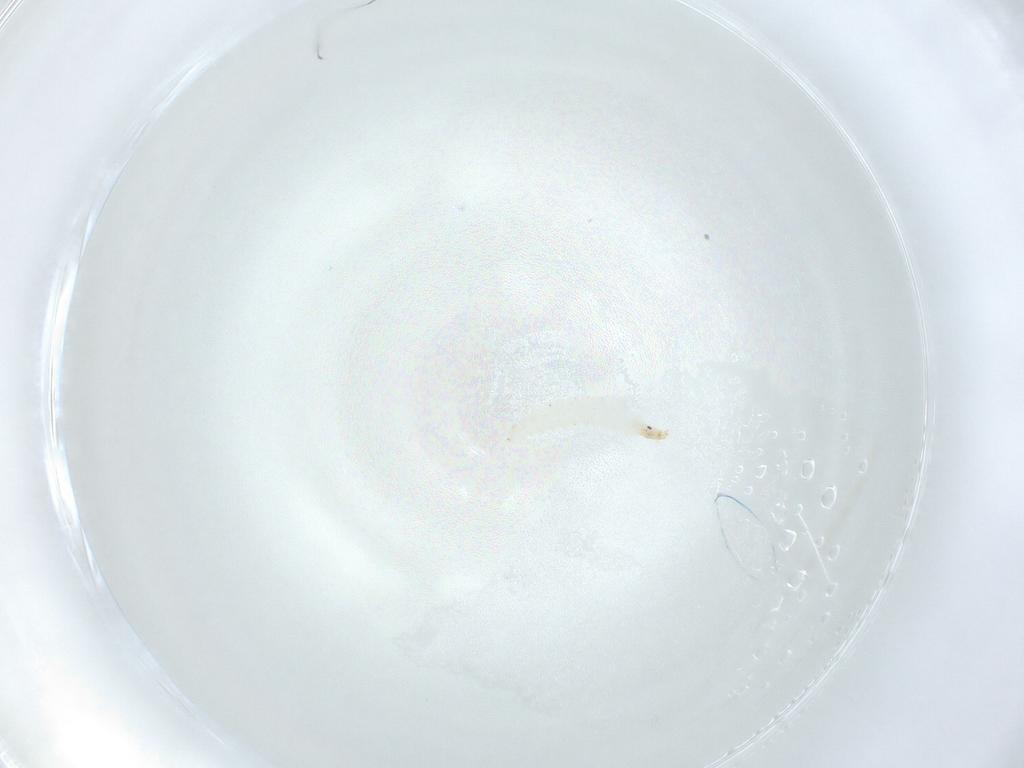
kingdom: Animalia
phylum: Arthropoda
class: Insecta
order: Diptera
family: Stratiomyidae
